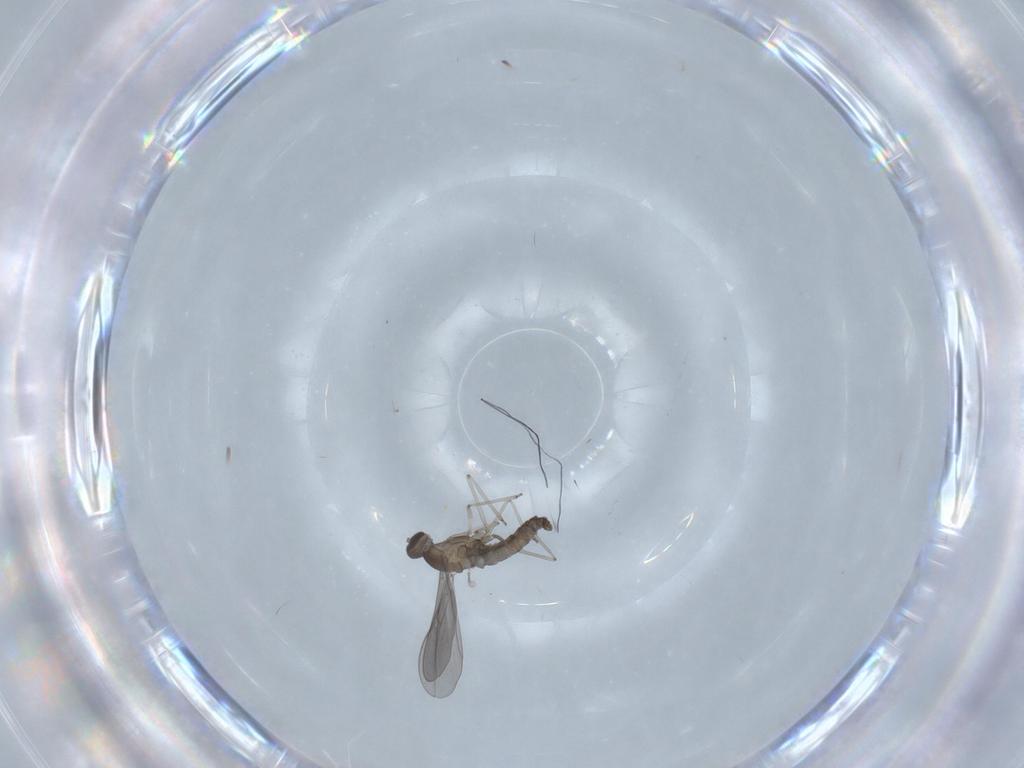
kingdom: Animalia
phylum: Arthropoda
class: Insecta
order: Diptera
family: Cecidomyiidae
